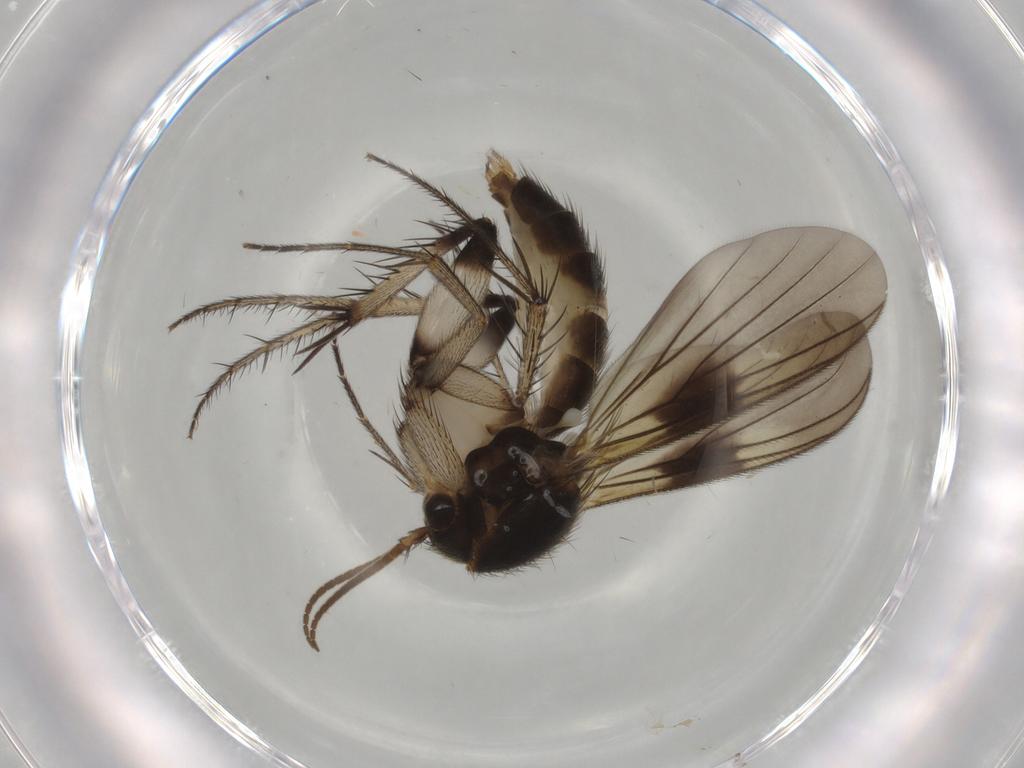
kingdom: Animalia
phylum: Arthropoda
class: Insecta
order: Diptera
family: Mycetophilidae
